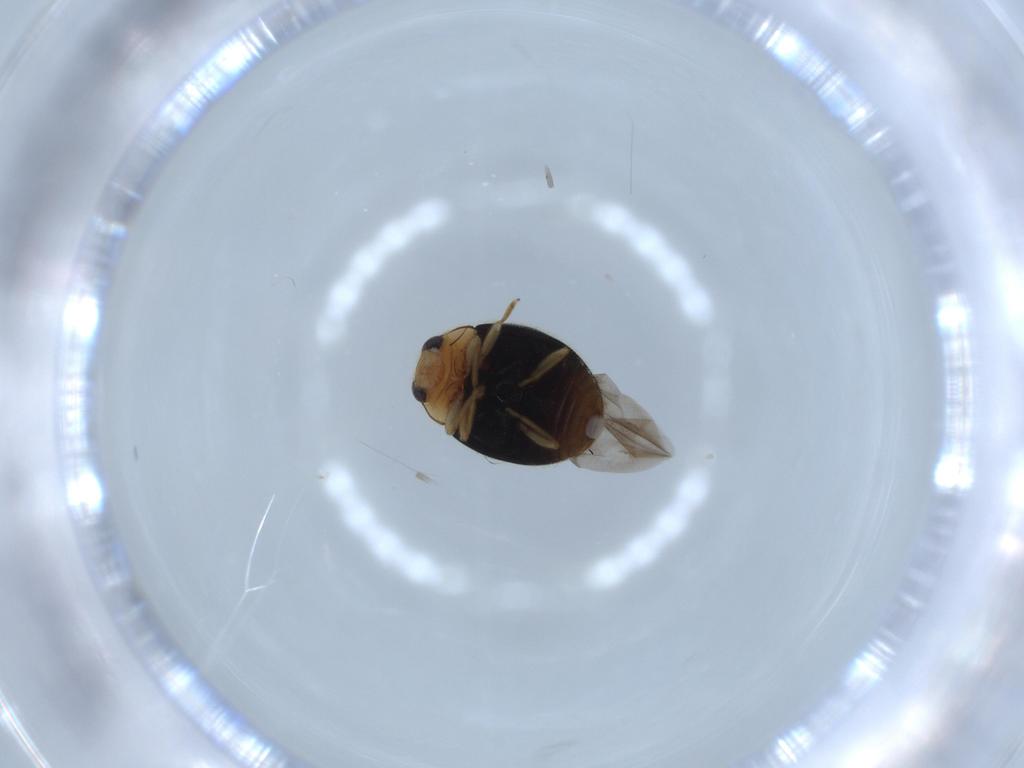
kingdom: Animalia
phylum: Arthropoda
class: Insecta
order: Coleoptera
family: Coccinellidae
